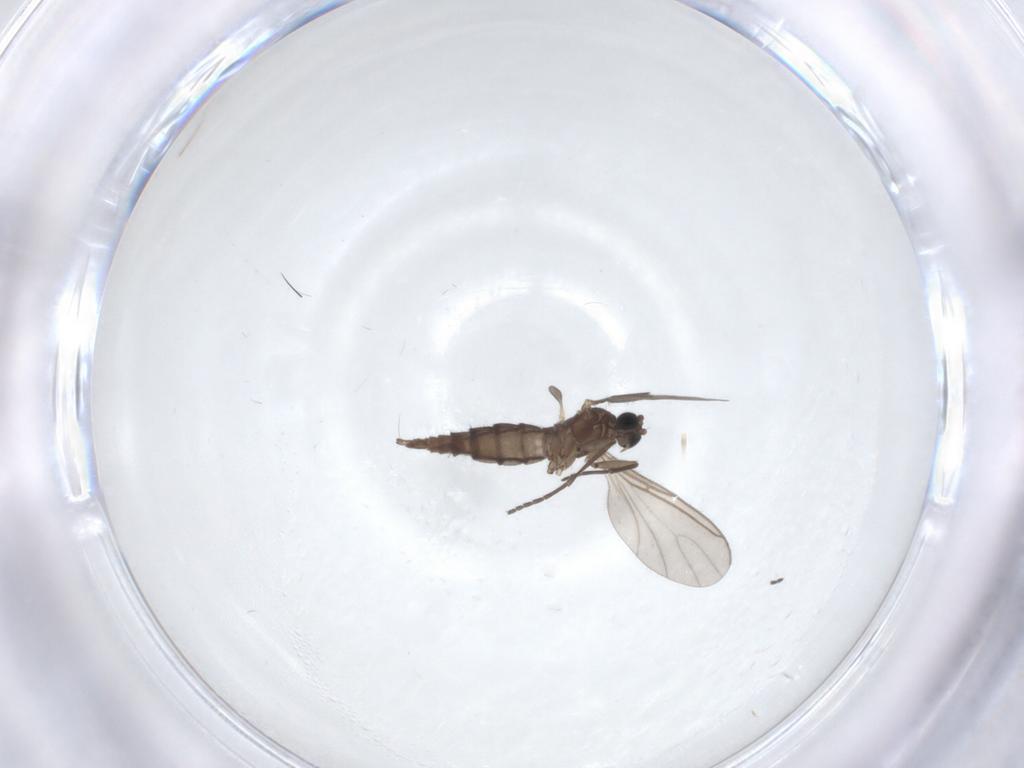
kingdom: Animalia
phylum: Arthropoda
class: Insecta
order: Diptera
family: Sciaridae
